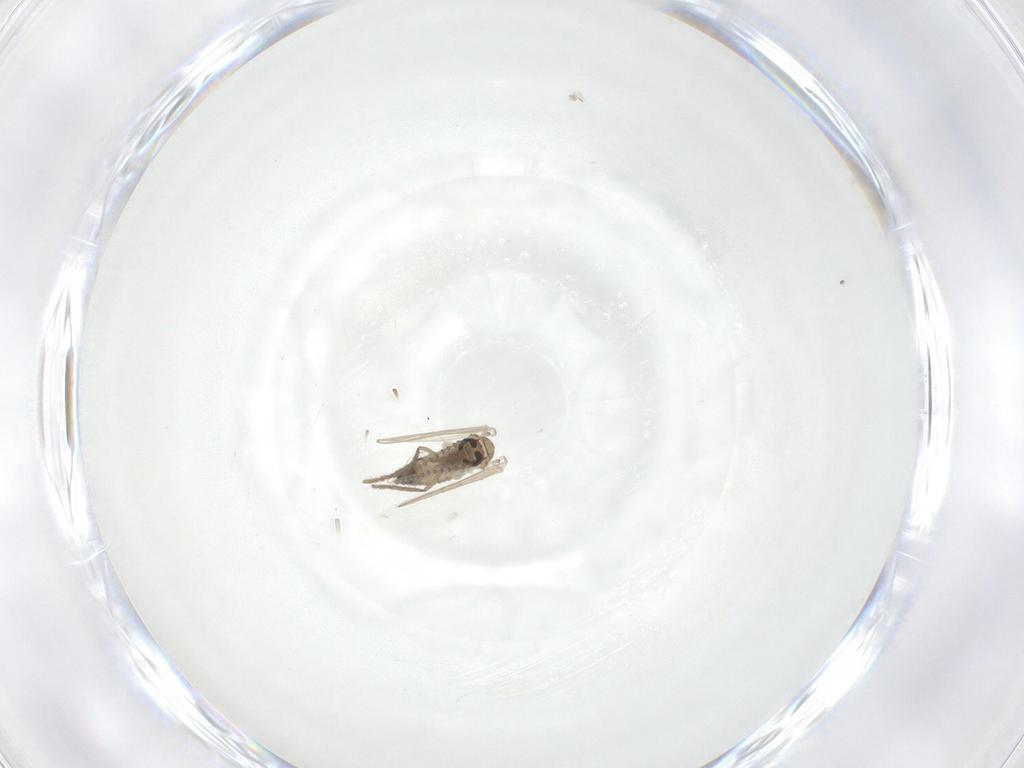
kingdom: Animalia
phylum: Arthropoda
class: Insecta
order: Diptera
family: Psychodidae
